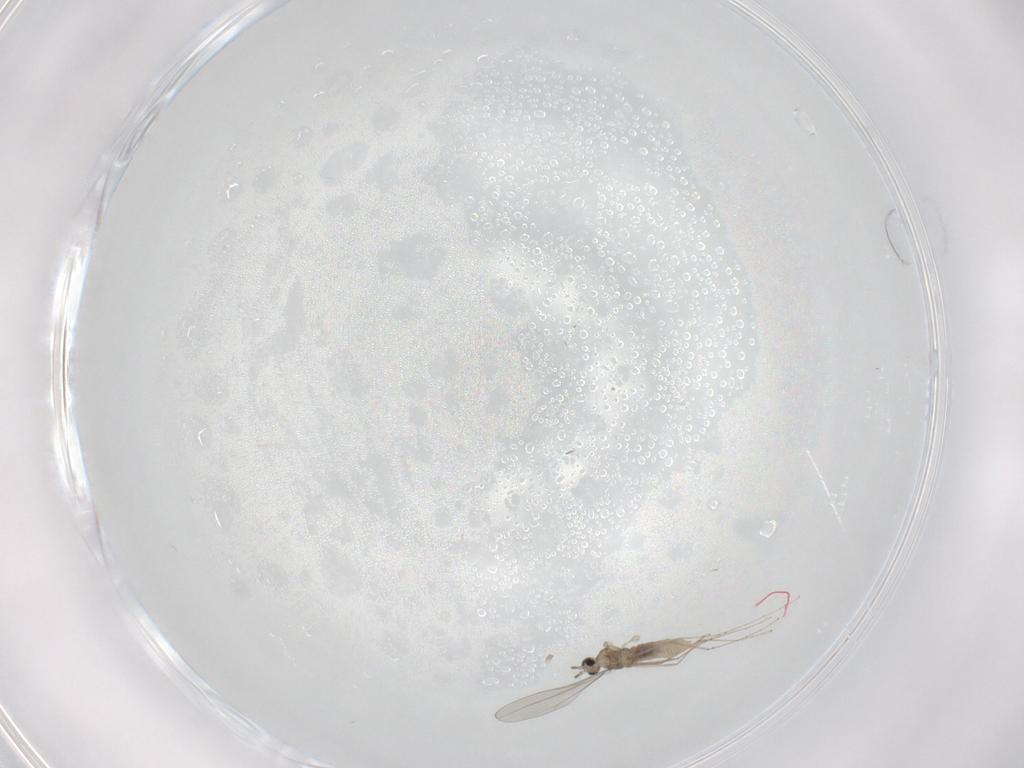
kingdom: Animalia
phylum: Arthropoda
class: Insecta
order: Diptera
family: Cecidomyiidae
